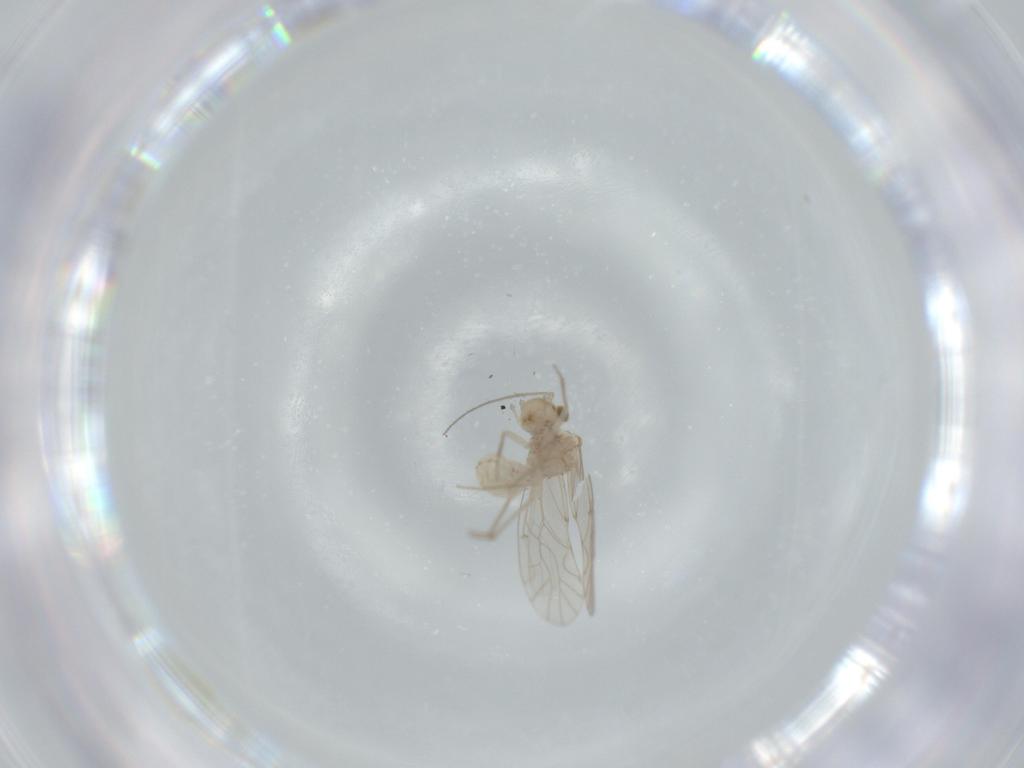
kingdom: Animalia
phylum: Arthropoda
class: Insecta
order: Psocodea
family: Lachesillidae
